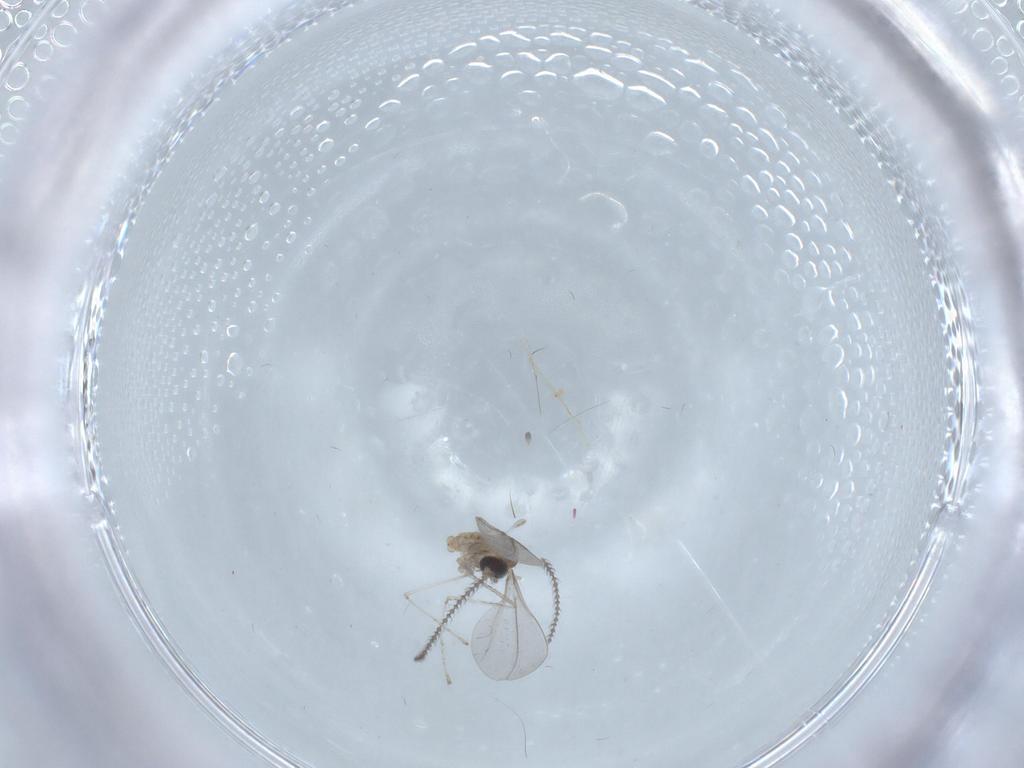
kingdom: Animalia
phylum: Arthropoda
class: Insecta
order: Diptera
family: Cecidomyiidae
